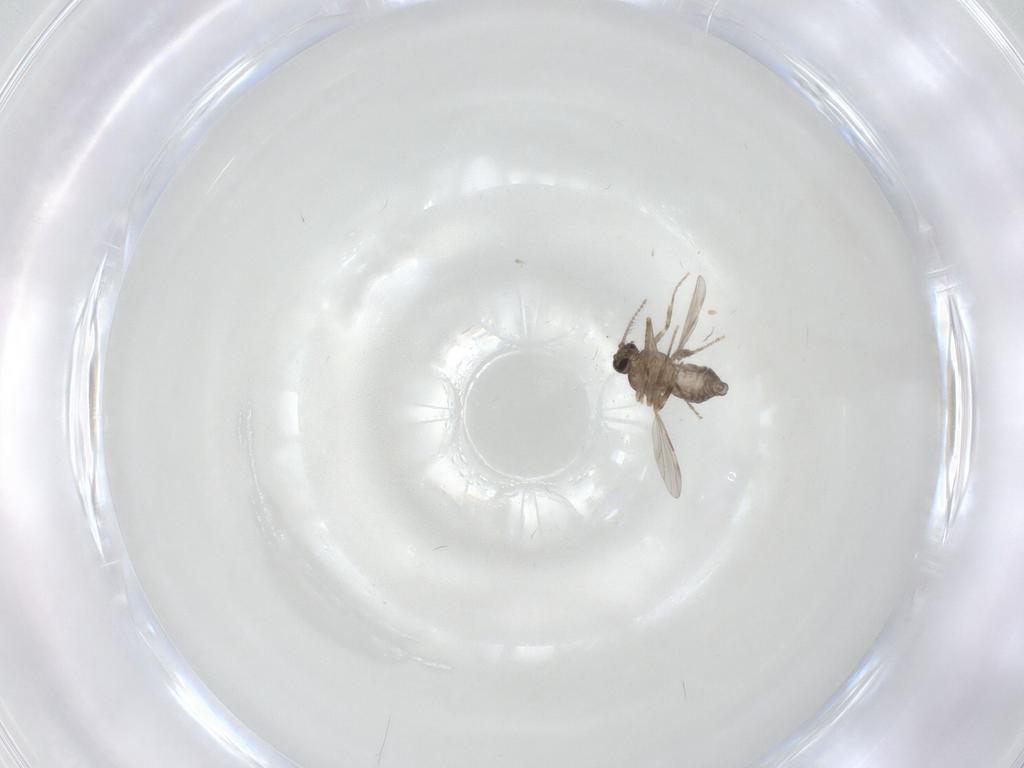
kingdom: Animalia
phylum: Arthropoda
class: Insecta
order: Diptera
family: Ceratopogonidae
